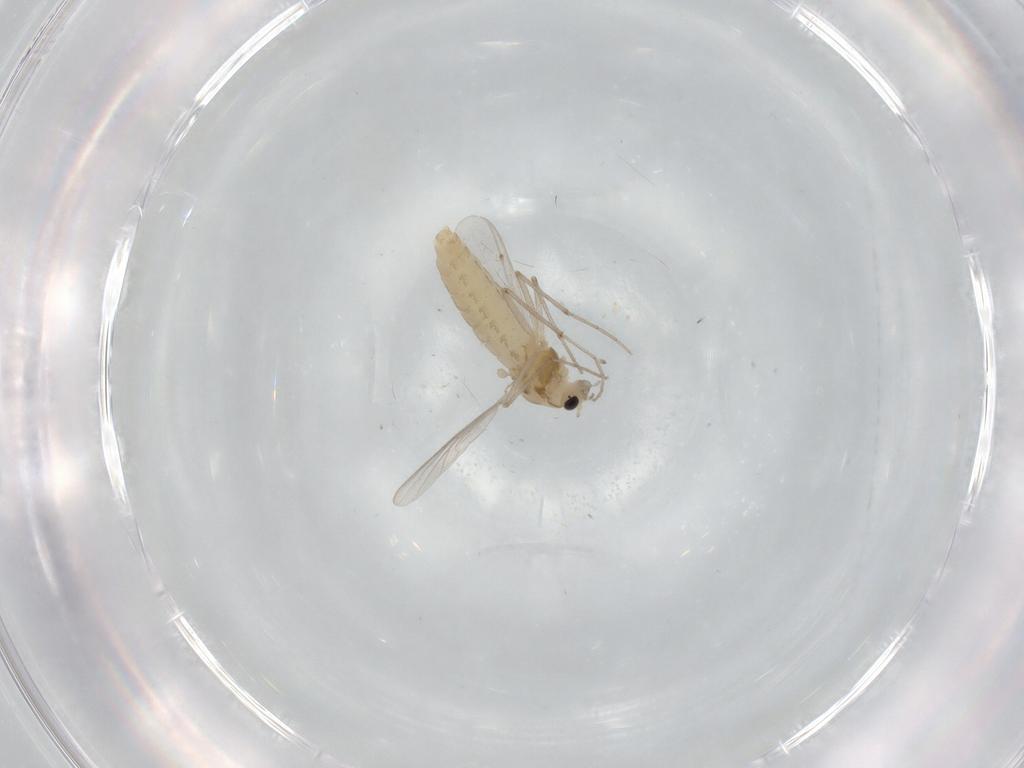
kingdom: Animalia
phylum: Arthropoda
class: Insecta
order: Diptera
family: Chironomidae
